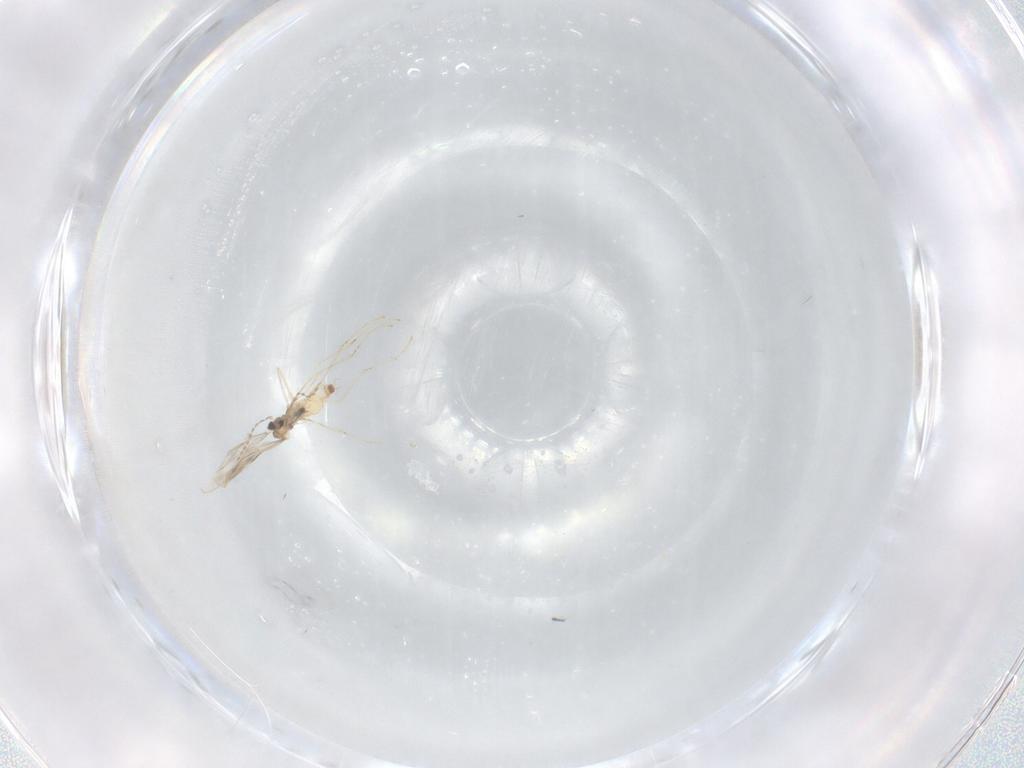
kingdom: Animalia
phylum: Arthropoda
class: Insecta
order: Diptera
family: Cecidomyiidae
